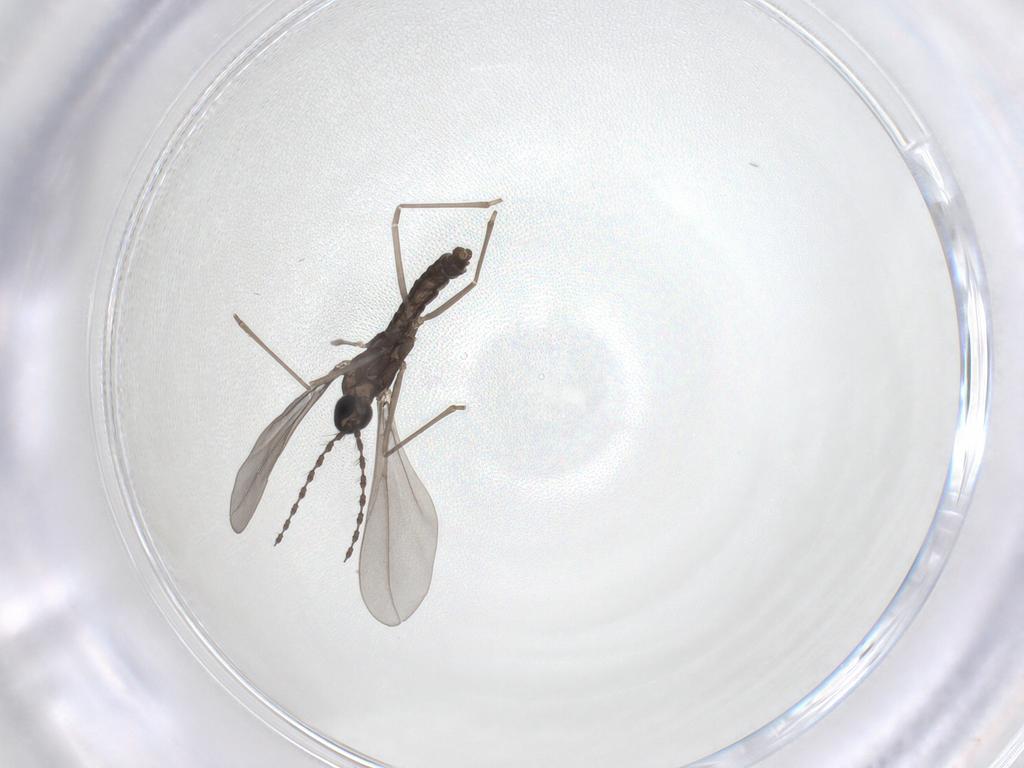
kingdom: Animalia
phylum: Arthropoda
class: Insecta
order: Diptera
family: Cecidomyiidae
